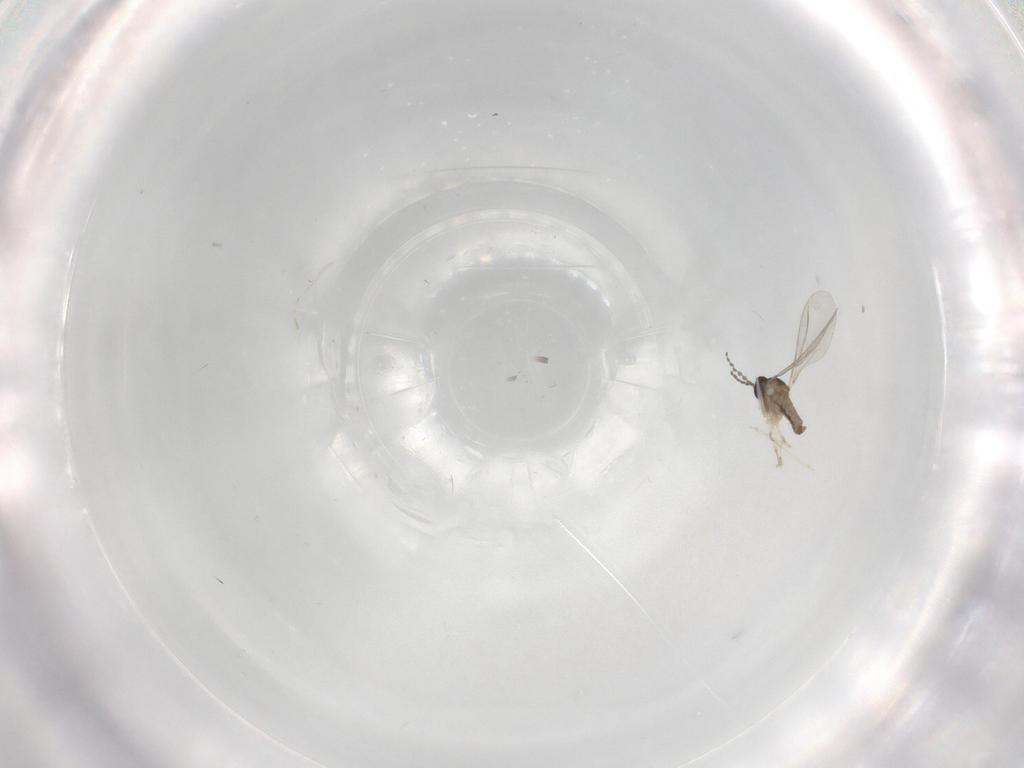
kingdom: Animalia
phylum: Arthropoda
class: Insecta
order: Diptera
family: Cecidomyiidae
